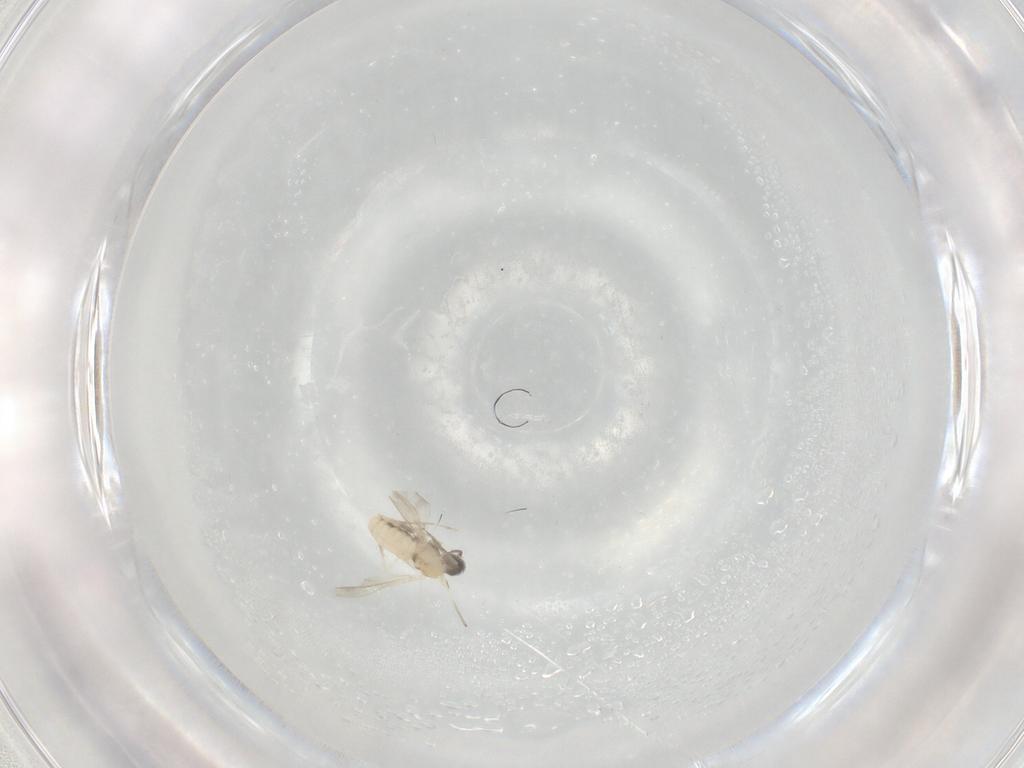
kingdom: Animalia
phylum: Arthropoda
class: Insecta
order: Diptera
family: Cecidomyiidae
